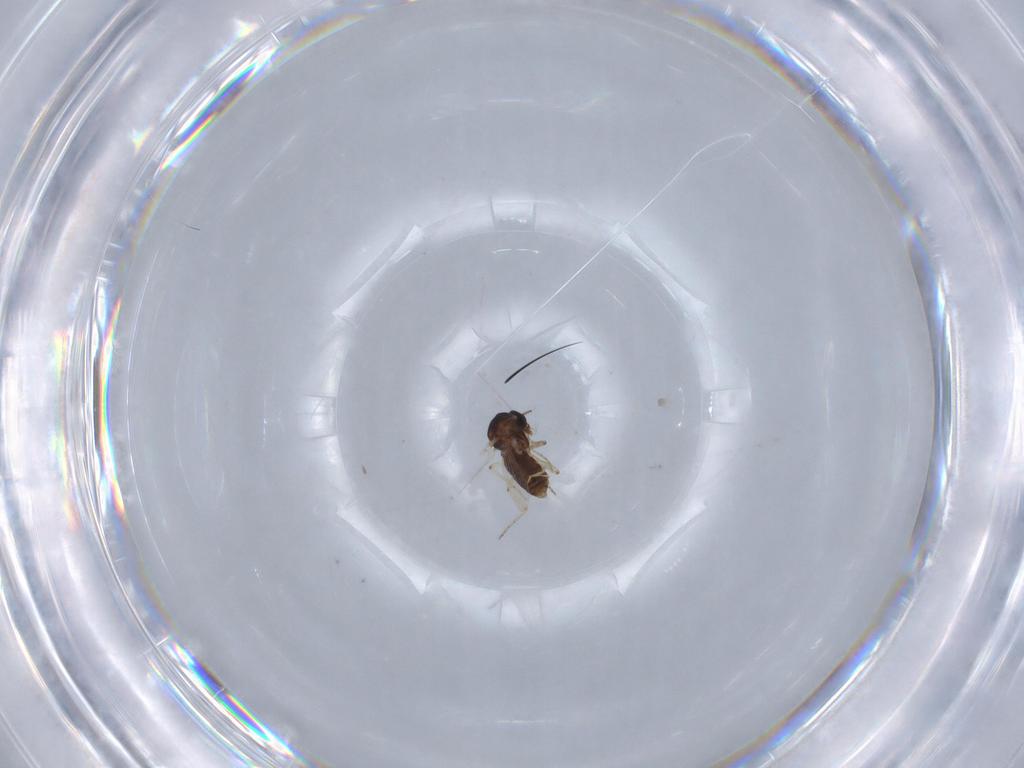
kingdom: Animalia
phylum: Arthropoda
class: Insecta
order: Diptera
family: Ceratopogonidae
